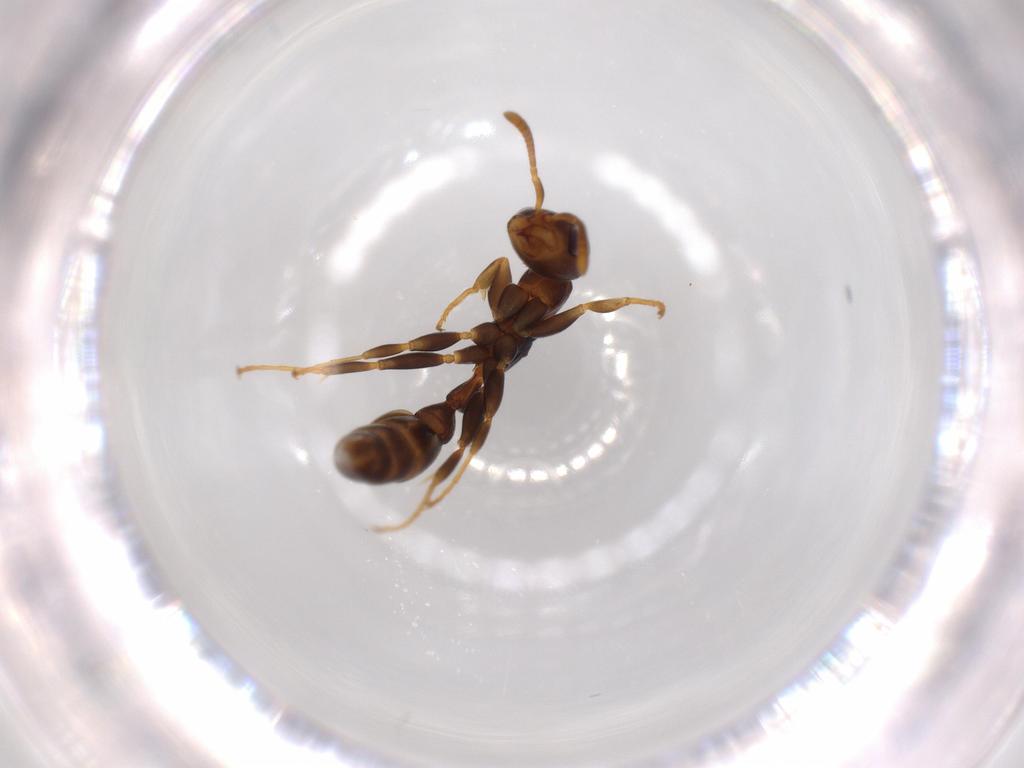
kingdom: Animalia
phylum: Arthropoda
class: Insecta
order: Hymenoptera
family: Formicidae
